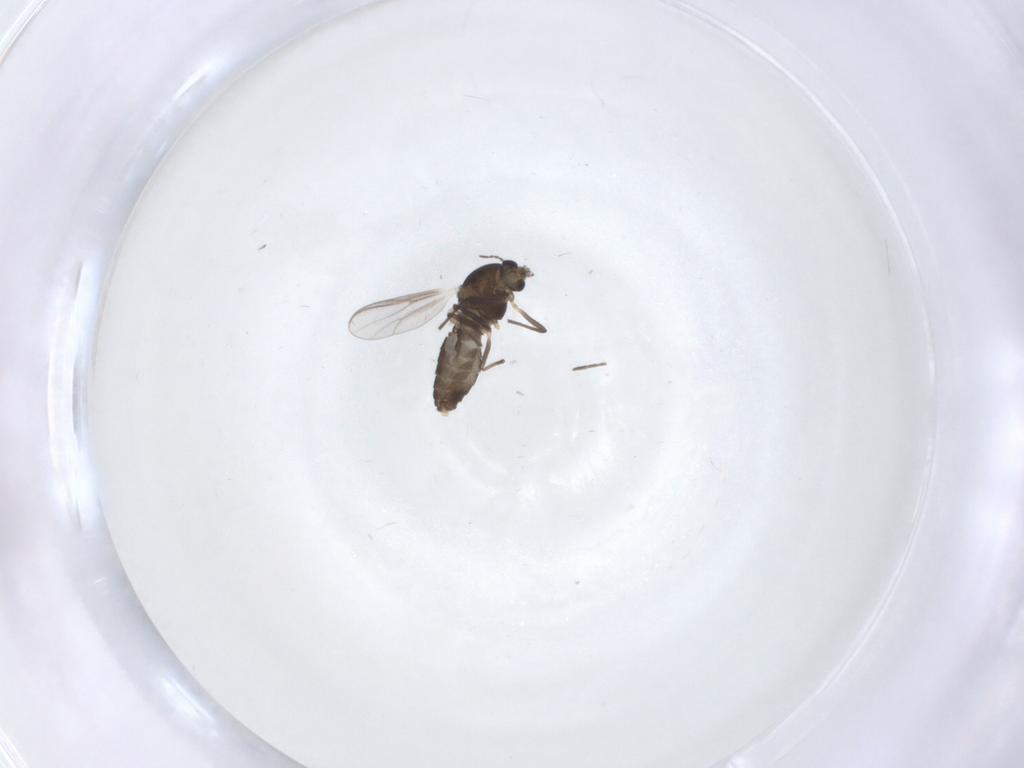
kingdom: Animalia
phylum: Arthropoda
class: Insecta
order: Diptera
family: Chironomidae
